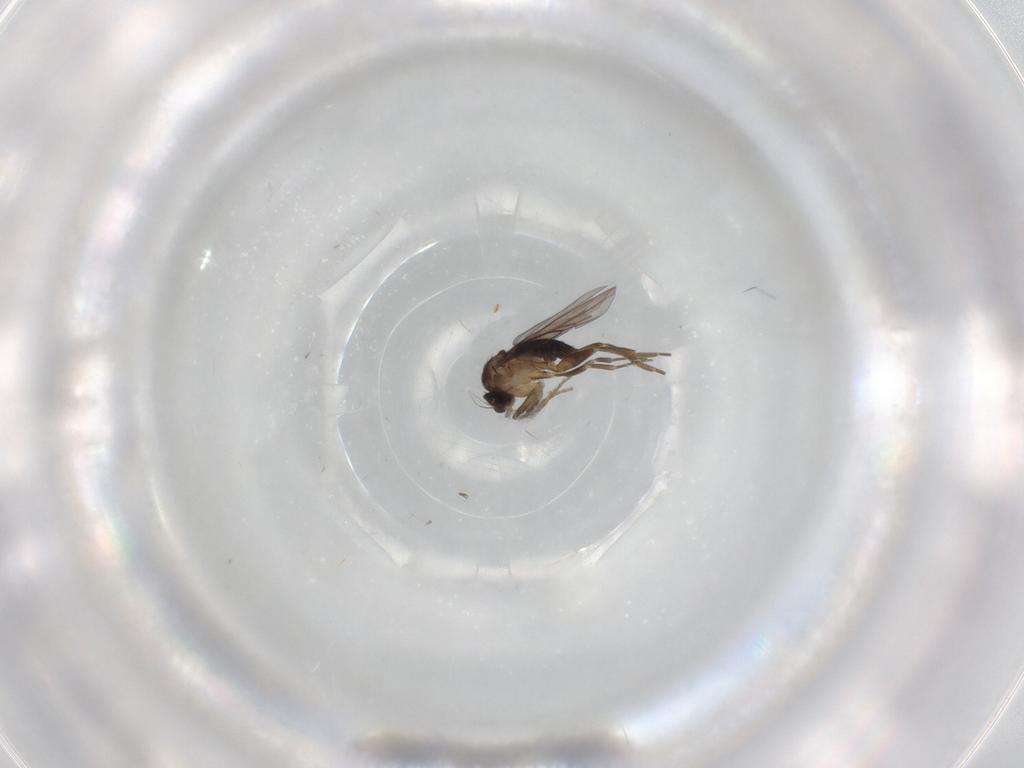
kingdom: Animalia
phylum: Arthropoda
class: Insecta
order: Diptera
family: Phoridae
